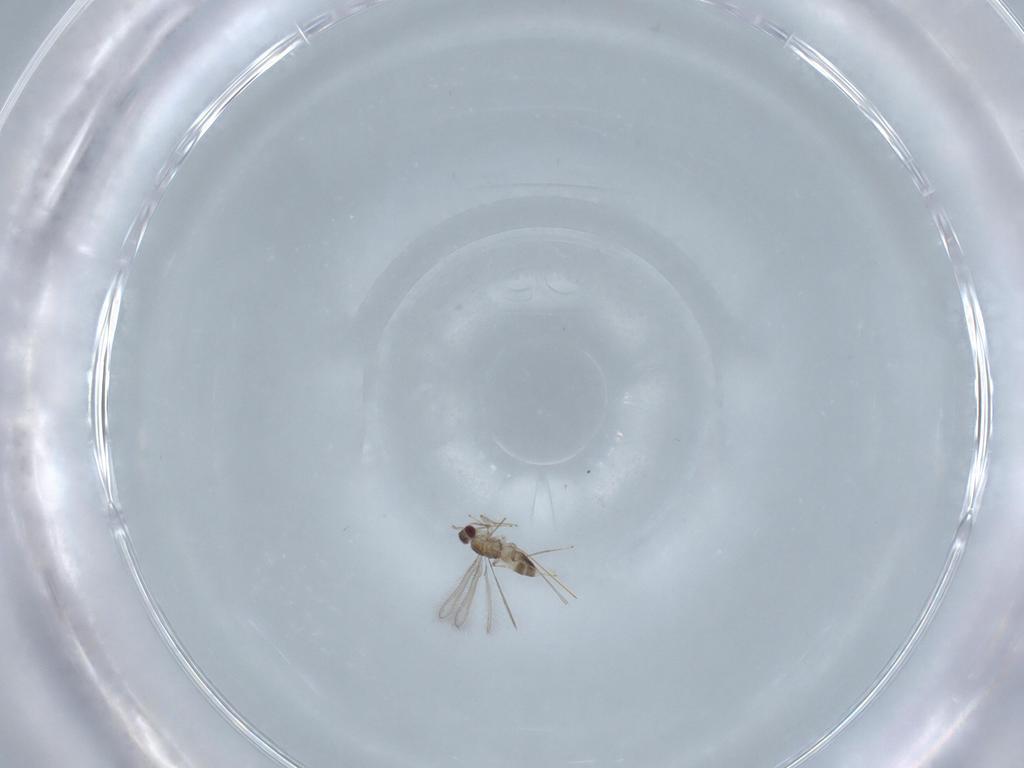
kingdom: Animalia
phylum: Arthropoda
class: Insecta
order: Hymenoptera
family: Mymaridae
